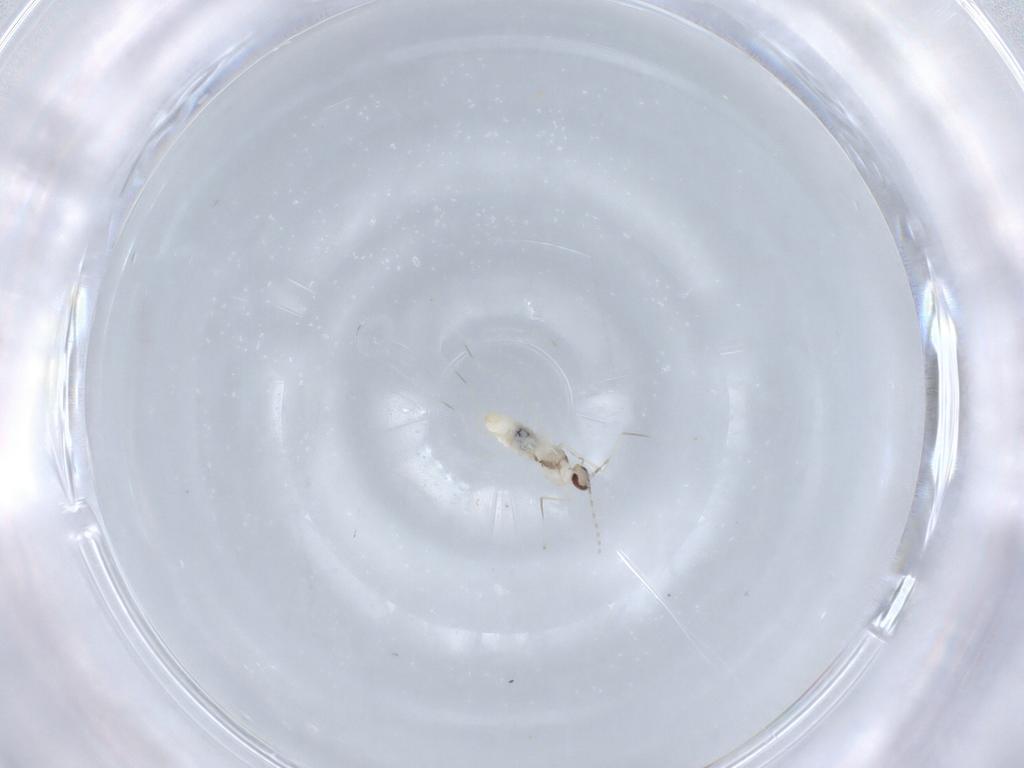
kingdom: Animalia
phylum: Arthropoda
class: Insecta
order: Diptera
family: Cecidomyiidae
